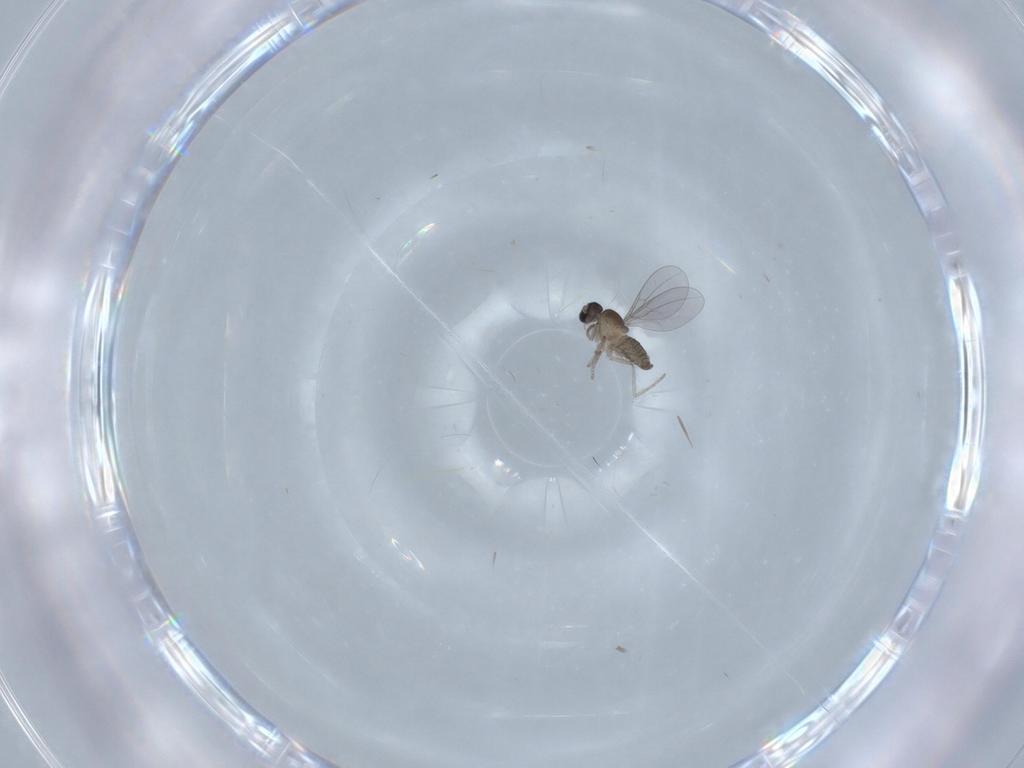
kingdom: Animalia
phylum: Arthropoda
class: Insecta
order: Diptera
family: Cecidomyiidae
